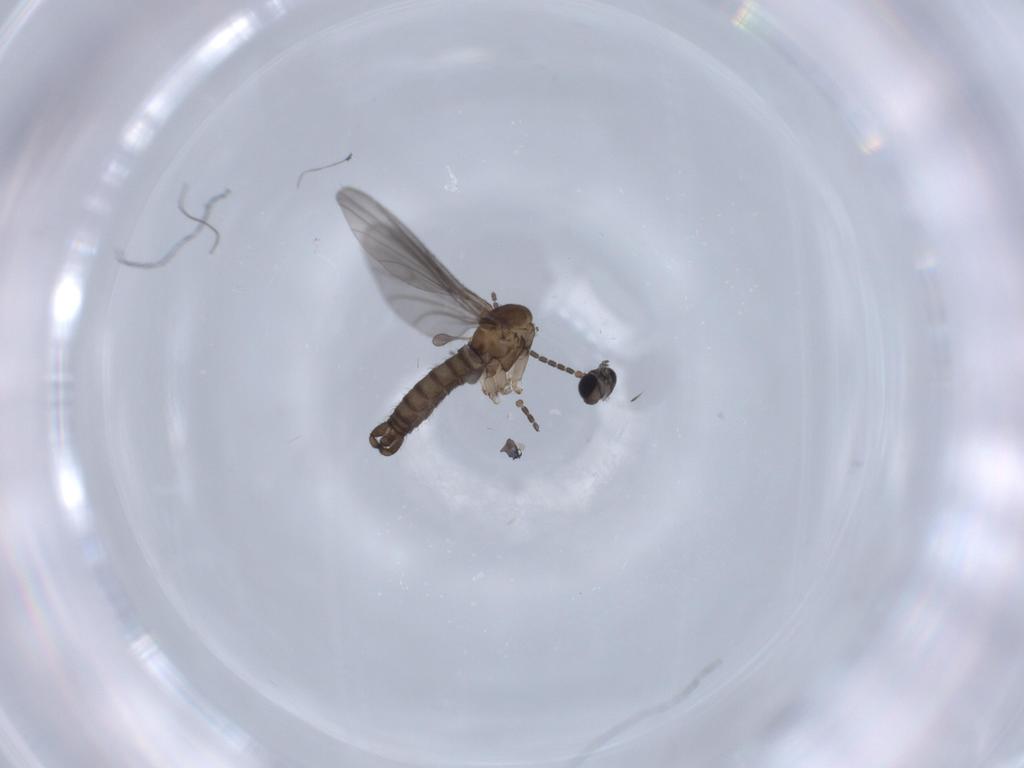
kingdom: Animalia
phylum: Arthropoda
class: Insecta
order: Diptera
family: Sciaridae
